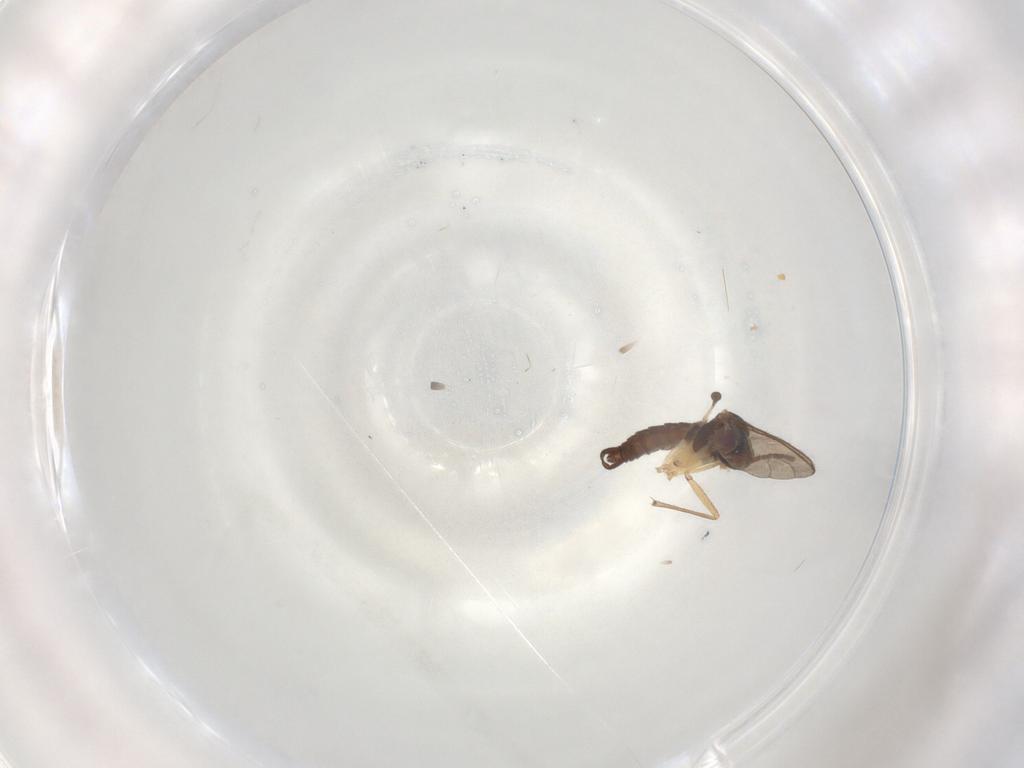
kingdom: Animalia
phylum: Arthropoda
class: Insecta
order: Diptera
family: Sciaridae
